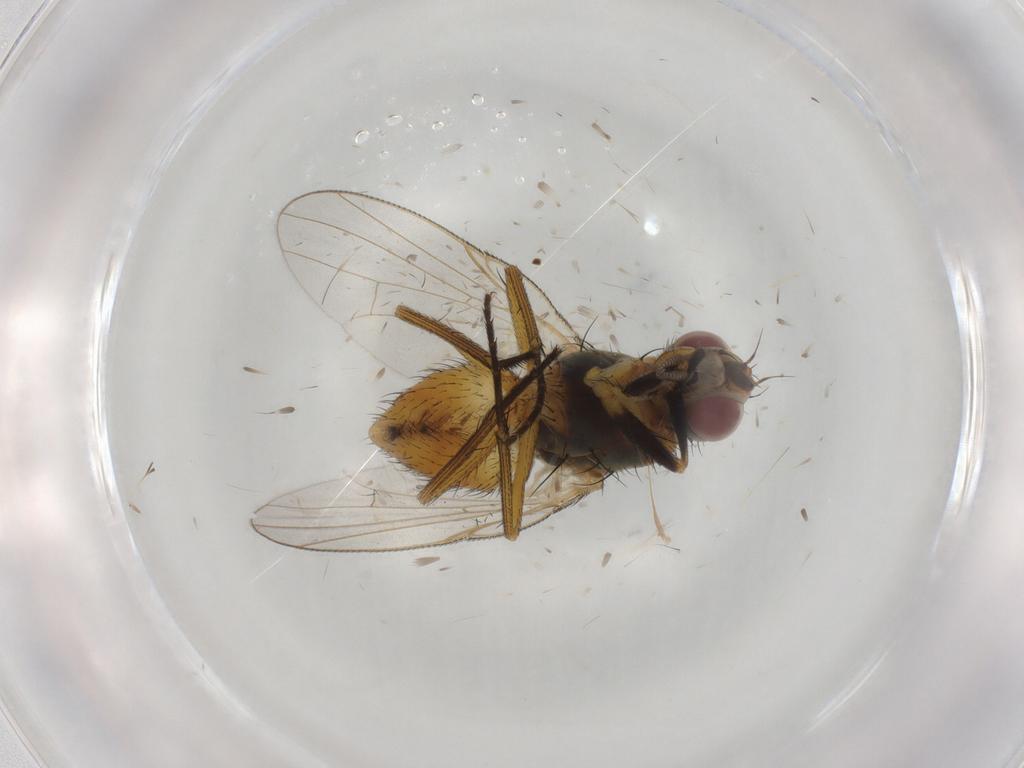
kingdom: Animalia
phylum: Arthropoda
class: Insecta
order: Diptera
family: Muscidae
